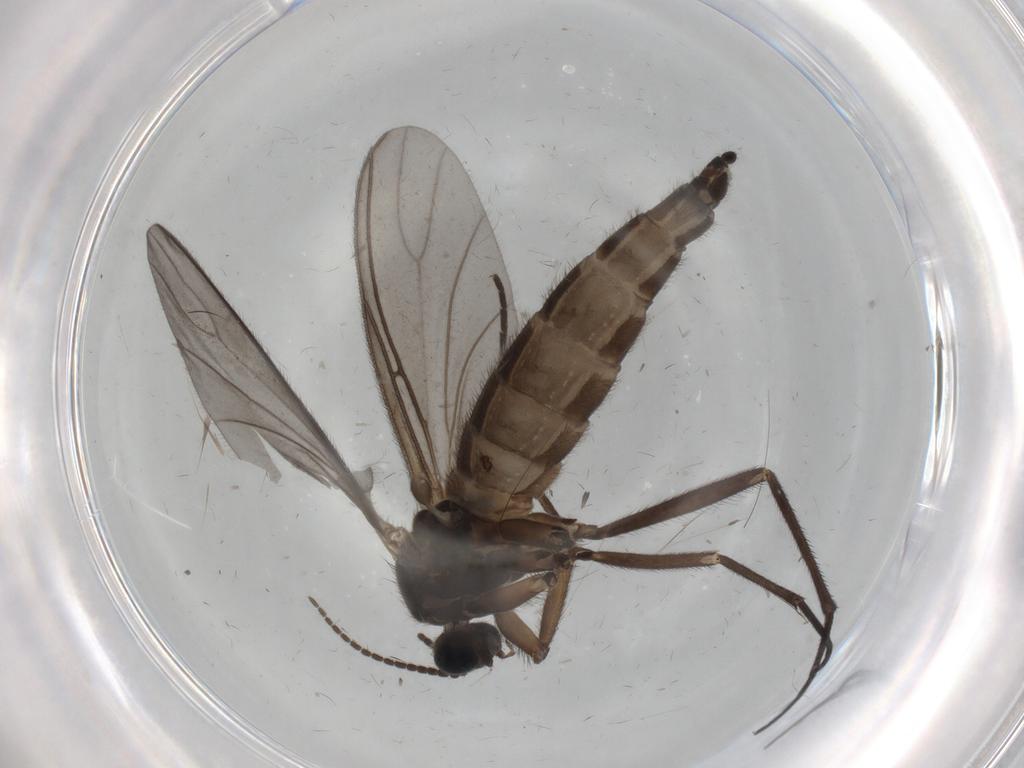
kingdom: Animalia
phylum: Arthropoda
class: Insecta
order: Diptera
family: Sciaridae
